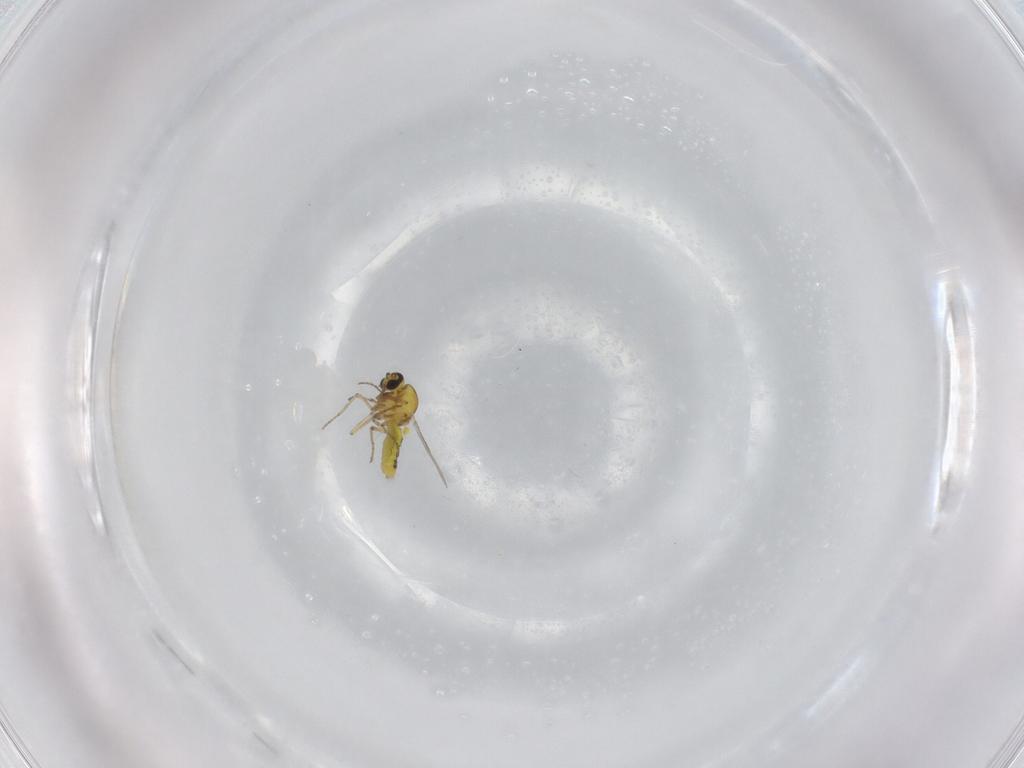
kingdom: Animalia
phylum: Arthropoda
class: Insecta
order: Diptera
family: Ceratopogonidae
